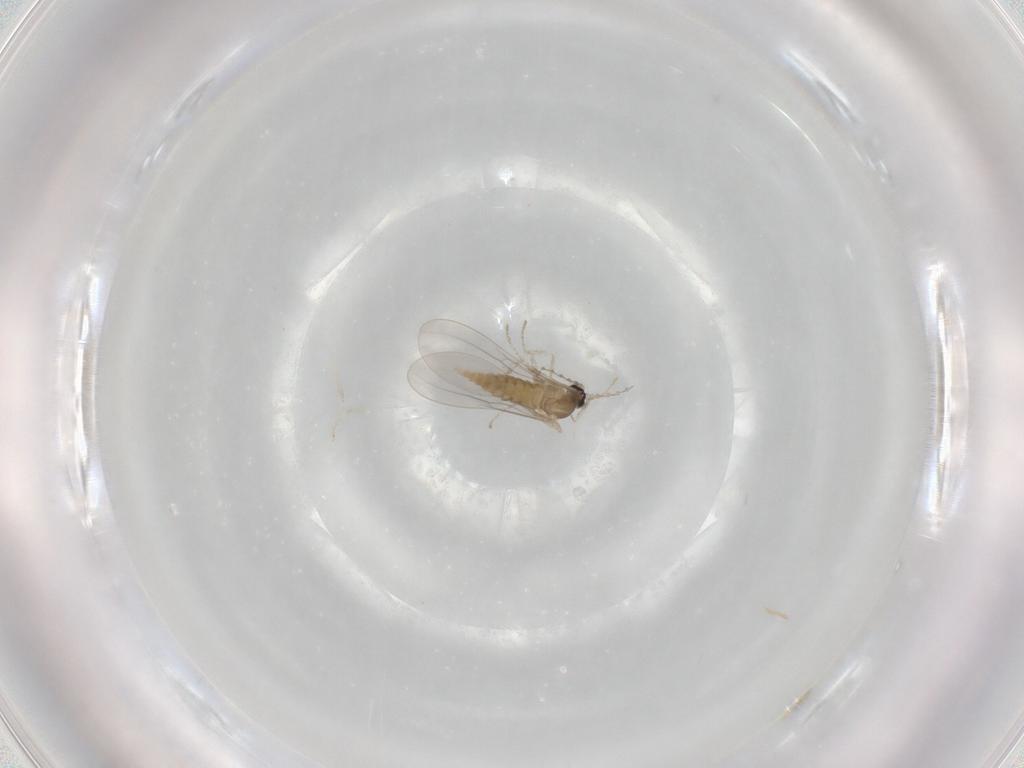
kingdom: Animalia
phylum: Arthropoda
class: Insecta
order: Diptera
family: Cecidomyiidae
